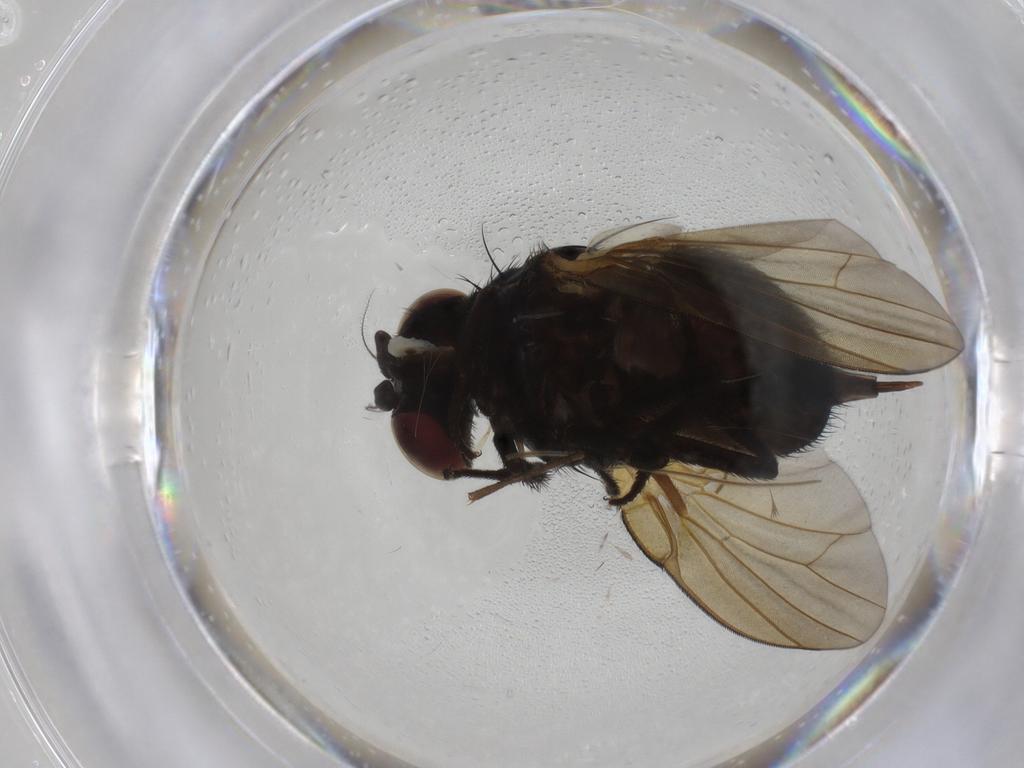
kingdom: Animalia
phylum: Arthropoda
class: Insecta
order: Diptera
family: Lonchaeidae
